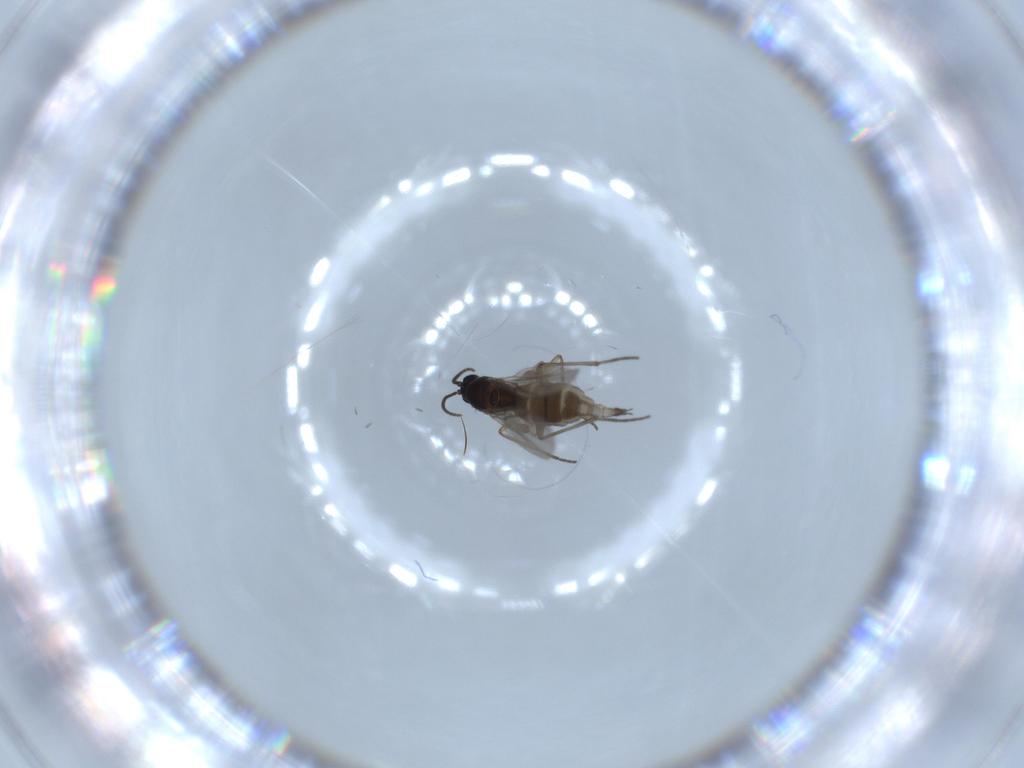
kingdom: Animalia
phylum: Arthropoda
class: Insecta
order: Diptera
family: Sciaridae
